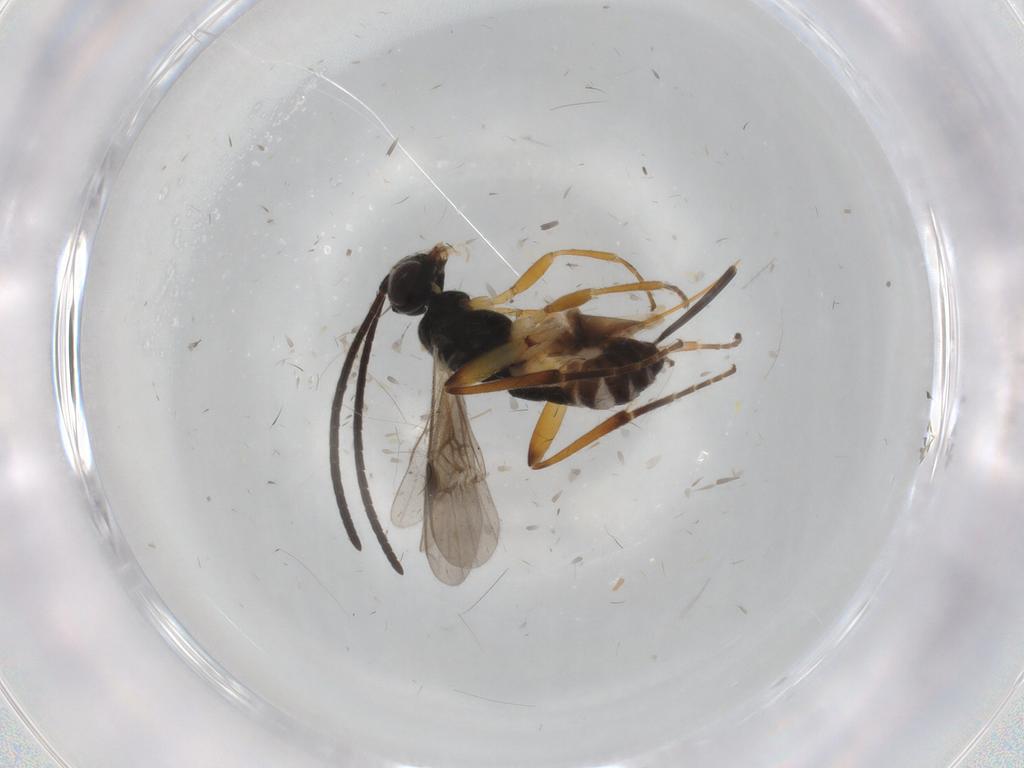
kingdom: Animalia
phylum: Arthropoda
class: Insecta
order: Hymenoptera
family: Braconidae
